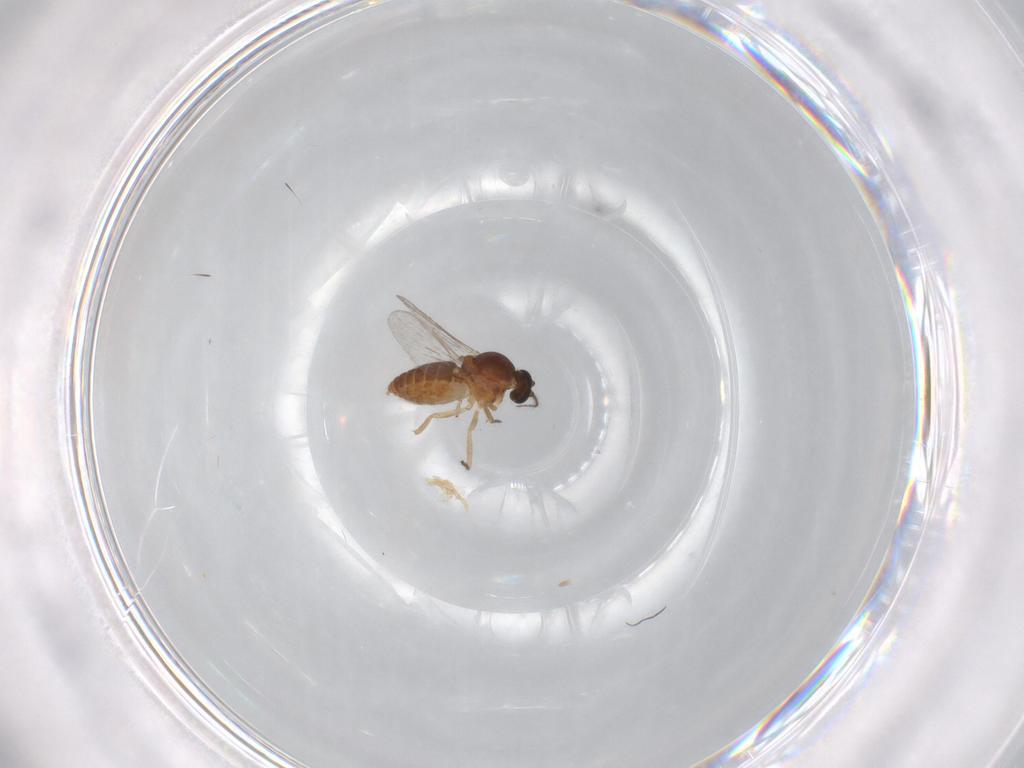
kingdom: Animalia
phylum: Arthropoda
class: Insecta
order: Diptera
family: Ceratopogonidae
